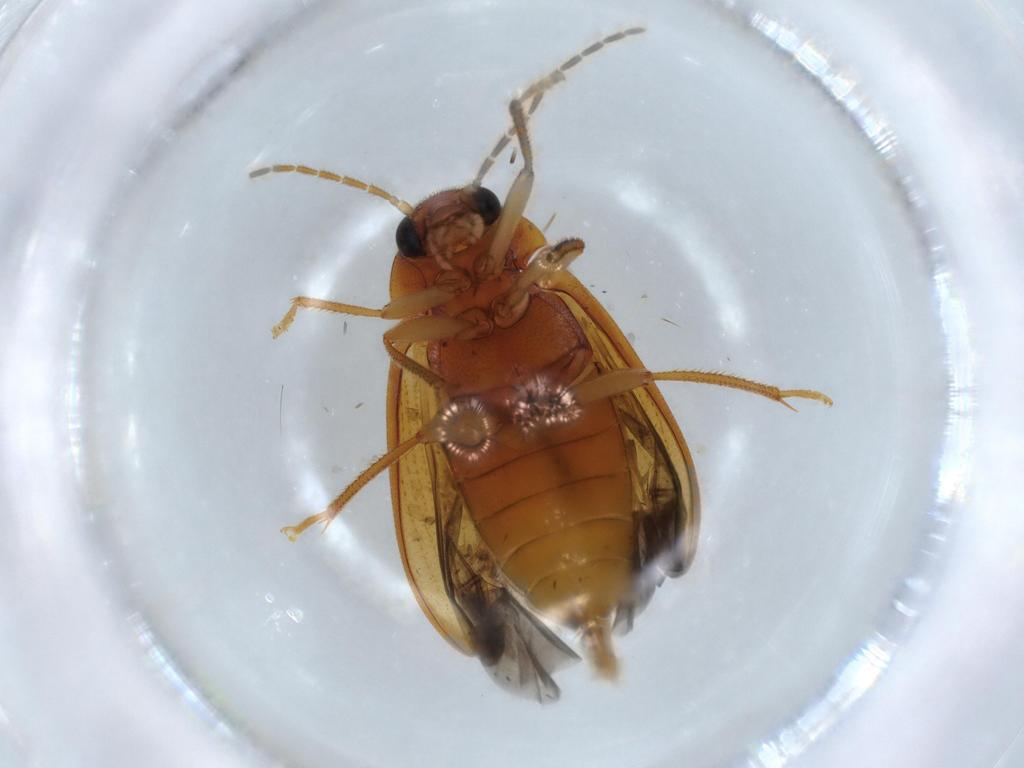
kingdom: Animalia
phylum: Arthropoda
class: Insecta
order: Coleoptera
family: Ptilodactylidae
